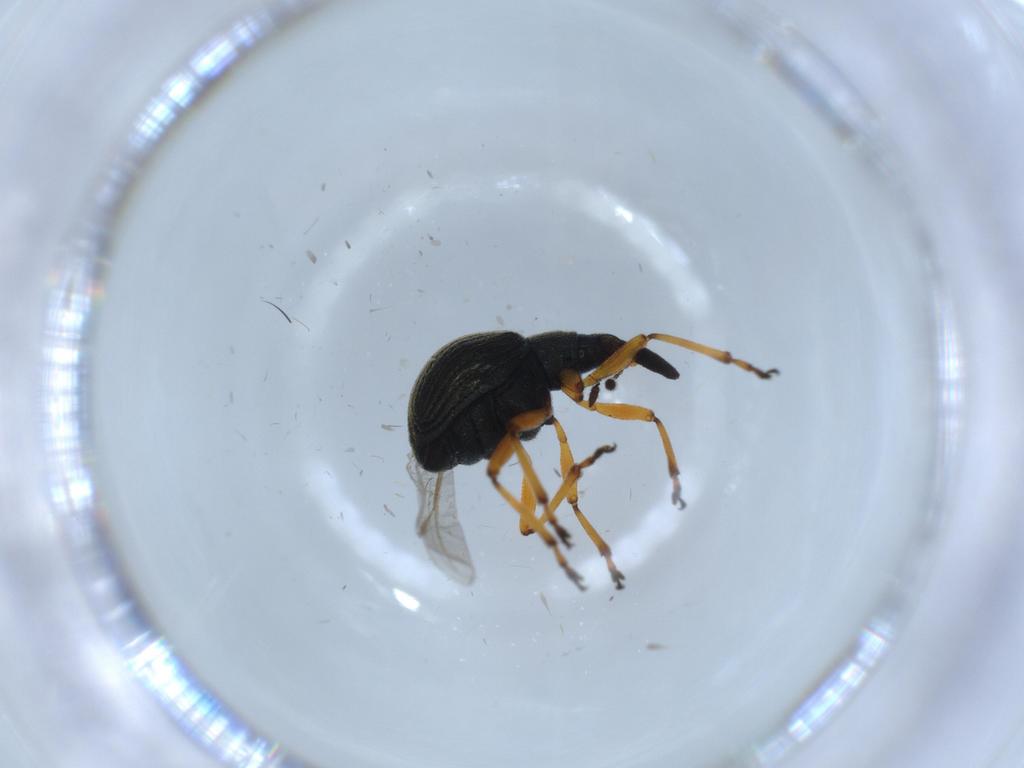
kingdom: Animalia
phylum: Arthropoda
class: Insecta
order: Coleoptera
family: Brentidae
